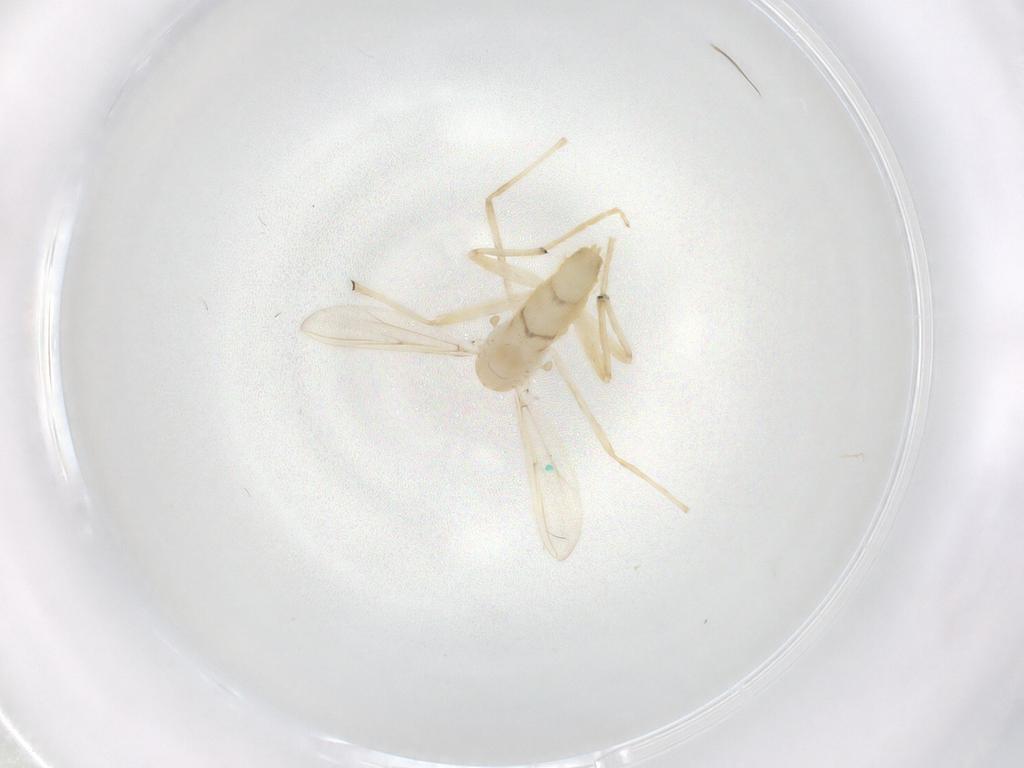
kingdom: Animalia
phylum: Arthropoda
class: Insecta
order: Diptera
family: Chironomidae
